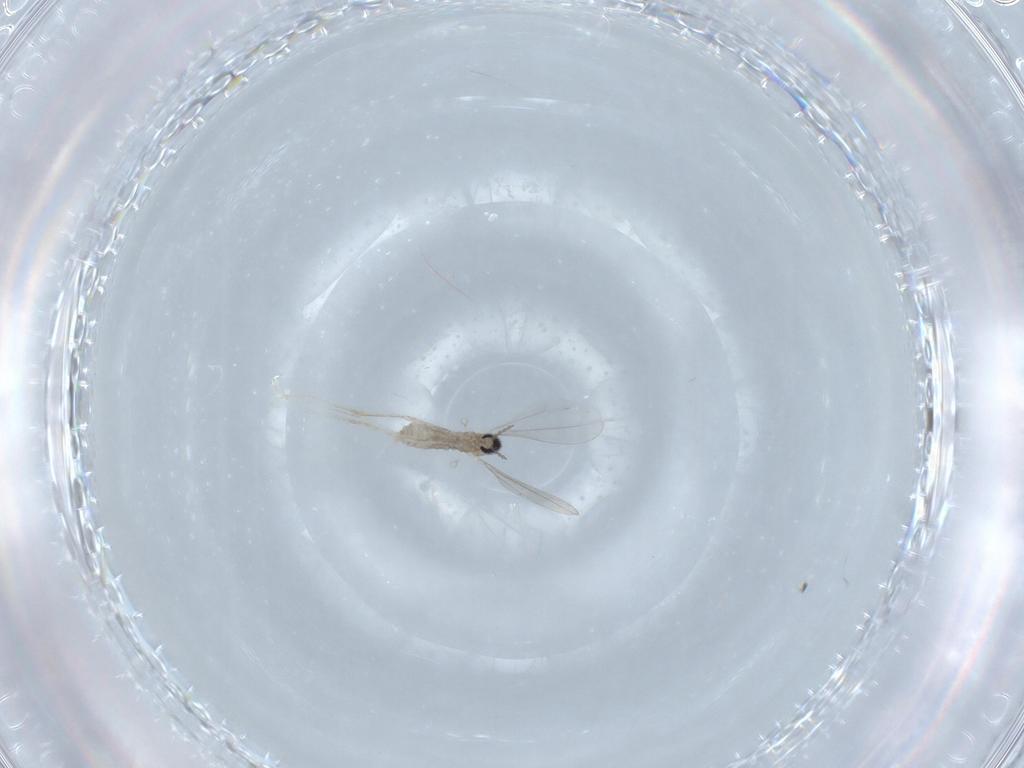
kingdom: Animalia
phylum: Arthropoda
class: Insecta
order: Diptera
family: Cecidomyiidae
